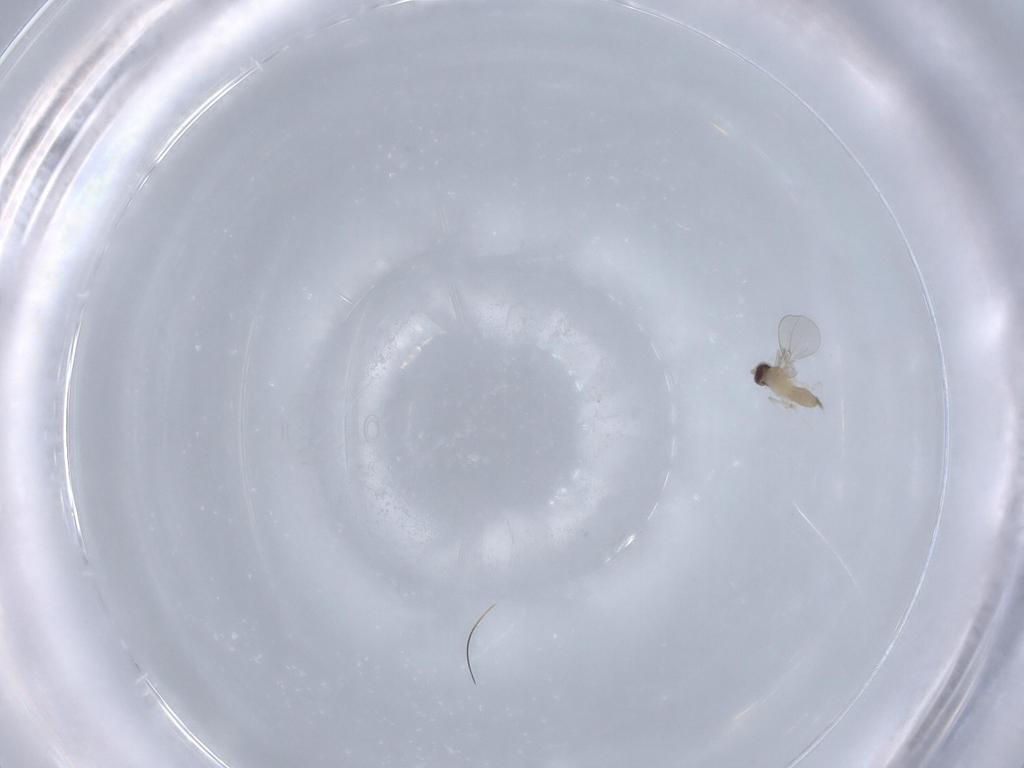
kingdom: Animalia
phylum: Arthropoda
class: Insecta
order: Diptera
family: Cecidomyiidae
